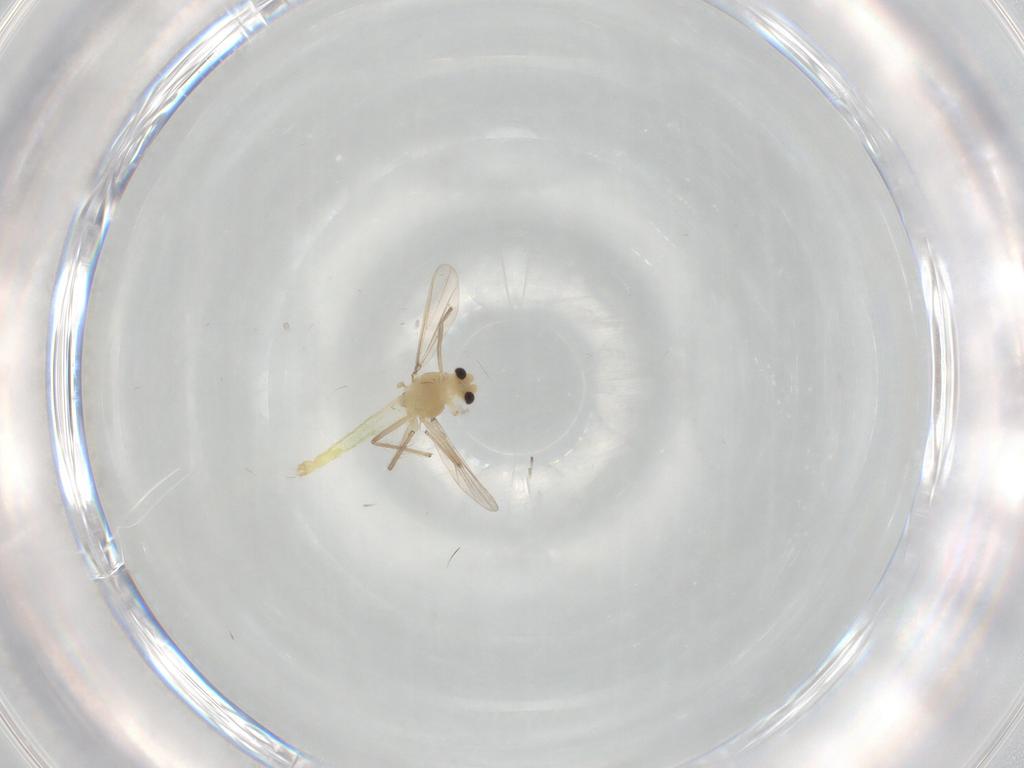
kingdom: Animalia
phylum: Arthropoda
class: Insecta
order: Diptera
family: Chironomidae
